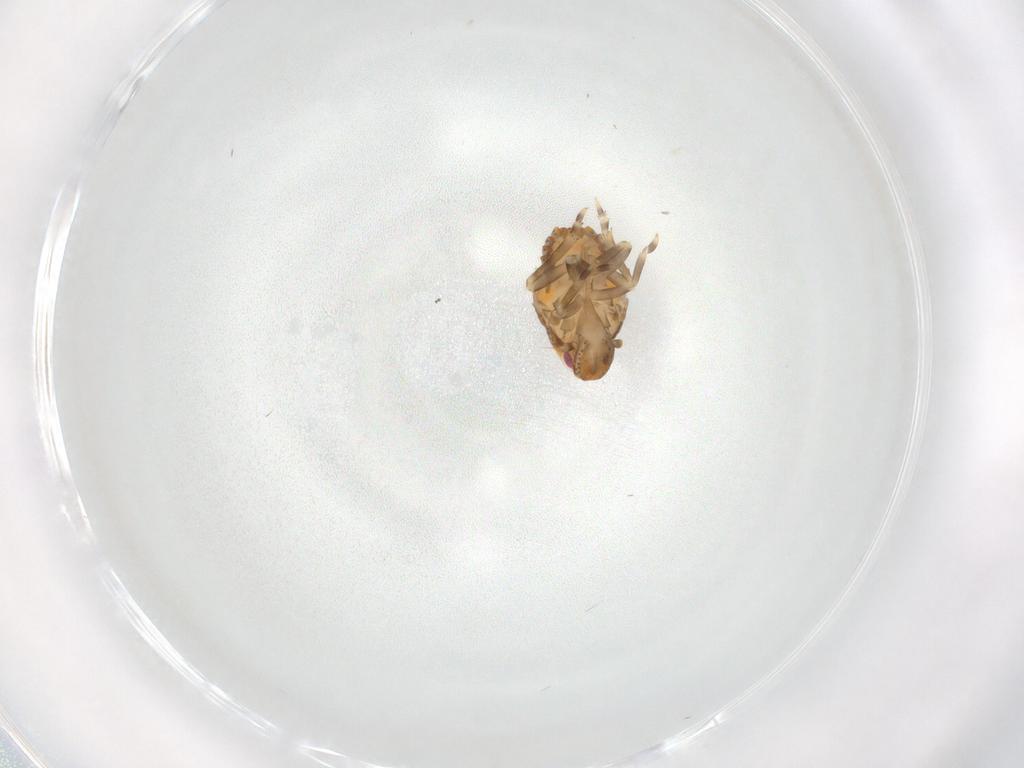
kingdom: Animalia
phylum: Arthropoda
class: Insecta
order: Hemiptera
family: Flatidae
